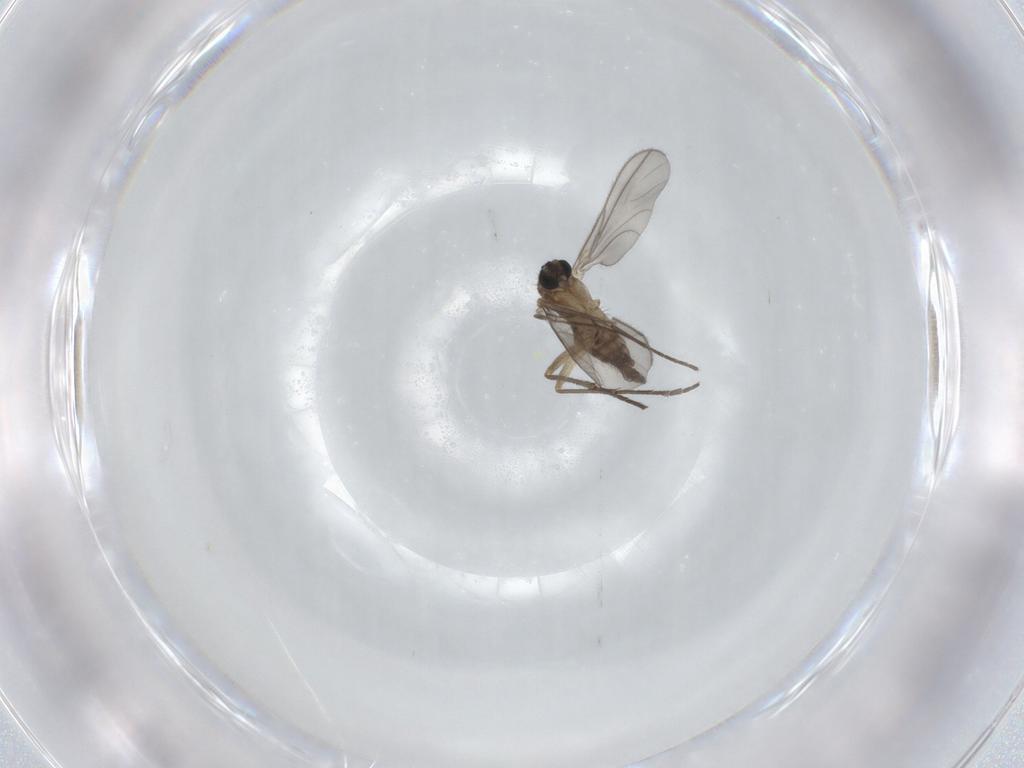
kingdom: Animalia
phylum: Arthropoda
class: Insecta
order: Diptera
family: Sciaridae
